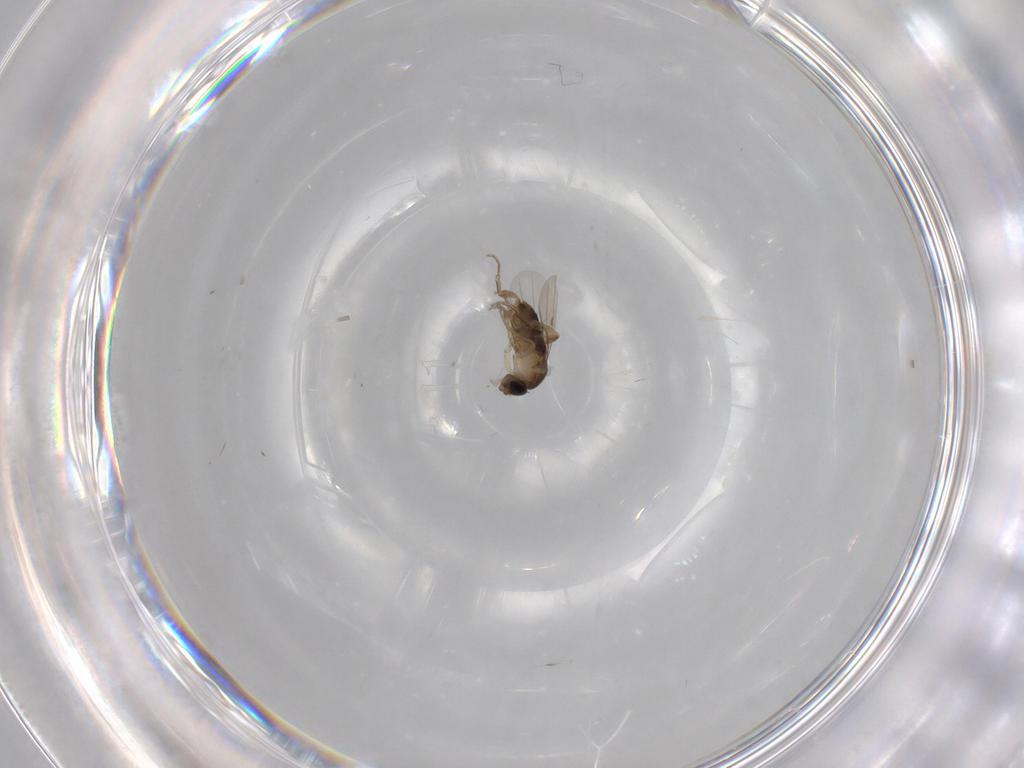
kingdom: Animalia
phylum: Arthropoda
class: Insecta
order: Diptera
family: Phoridae
